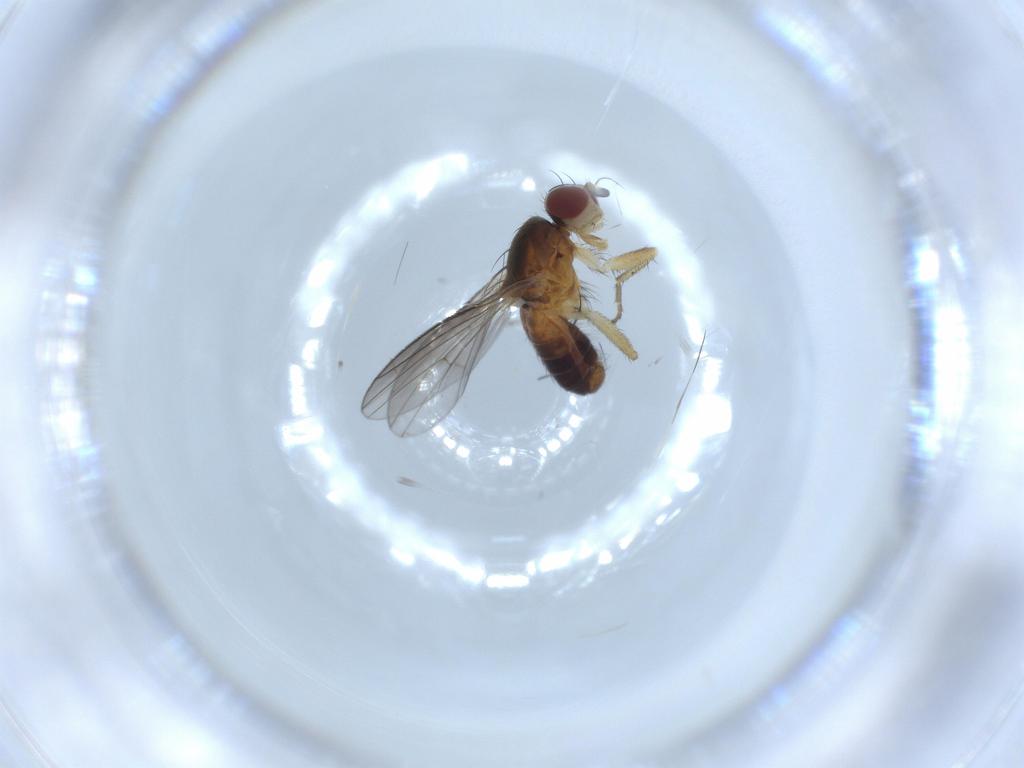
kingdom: Animalia
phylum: Arthropoda
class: Insecta
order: Diptera
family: Heleomyzidae
